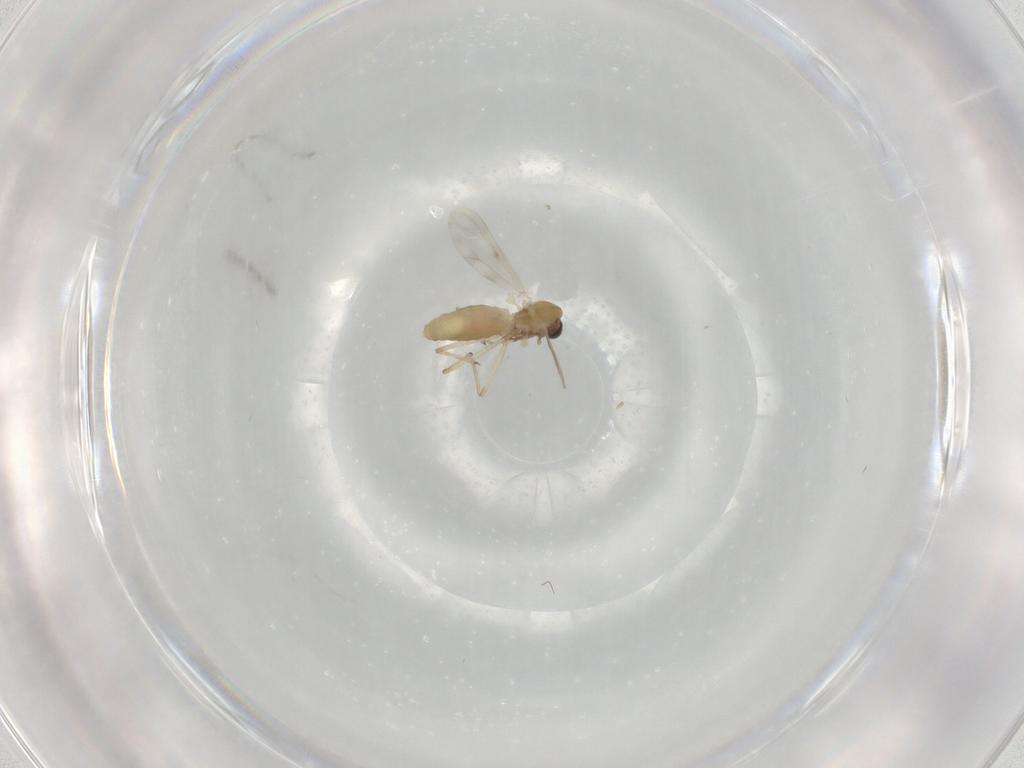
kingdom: Animalia
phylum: Arthropoda
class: Insecta
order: Diptera
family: Chironomidae
